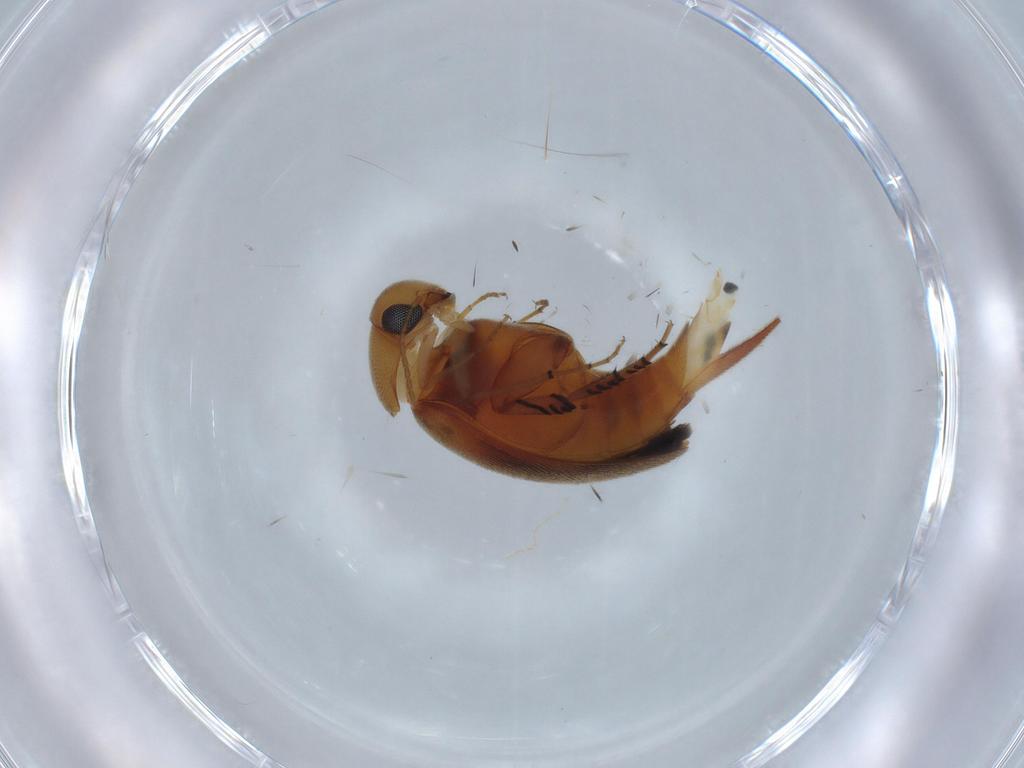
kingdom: Animalia
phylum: Arthropoda
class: Insecta
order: Coleoptera
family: Mordellidae
